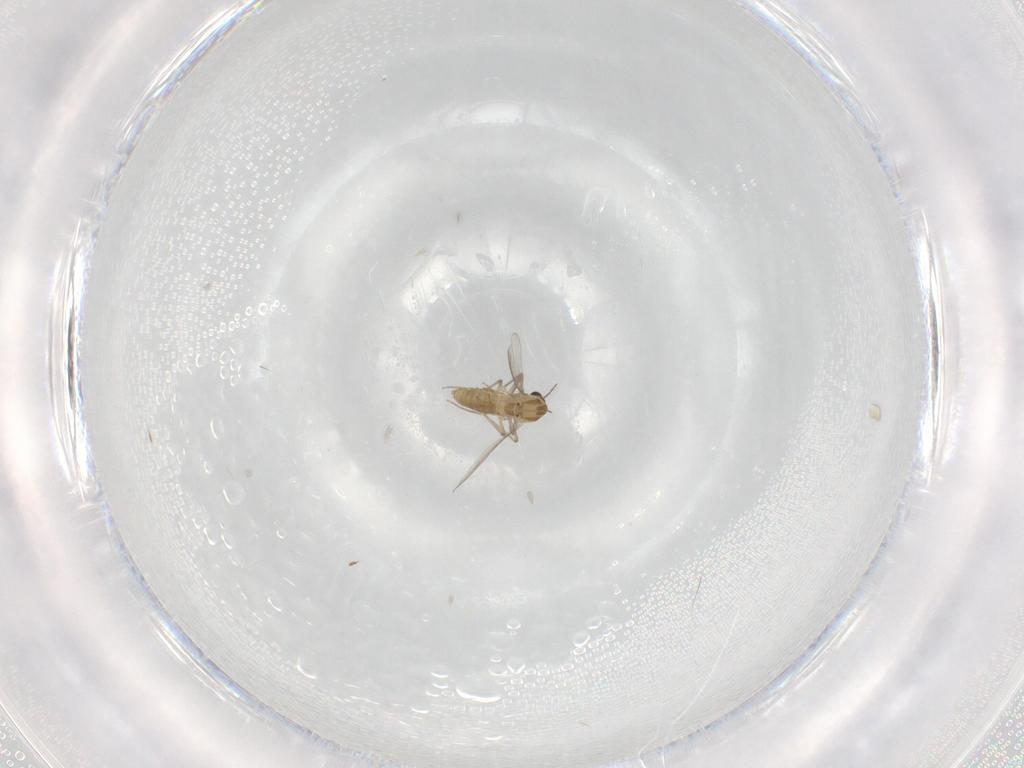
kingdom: Animalia
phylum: Arthropoda
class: Insecta
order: Diptera
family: Chironomidae
